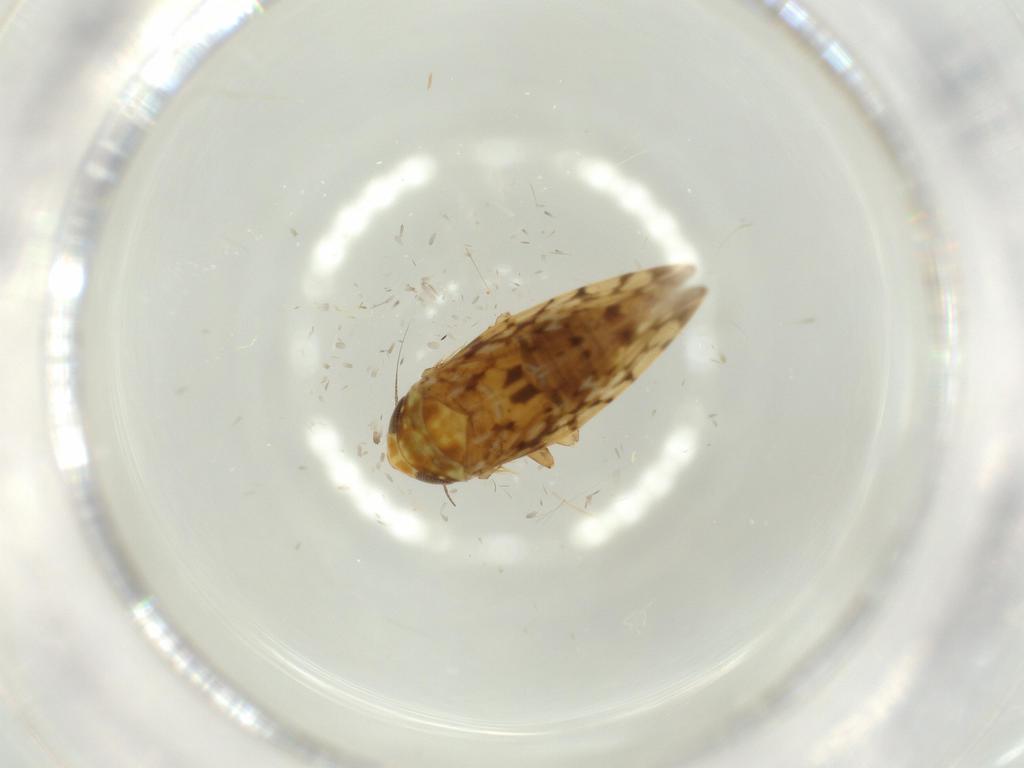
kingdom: Animalia
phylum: Arthropoda
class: Insecta
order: Hemiptera
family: Cicadellidae
